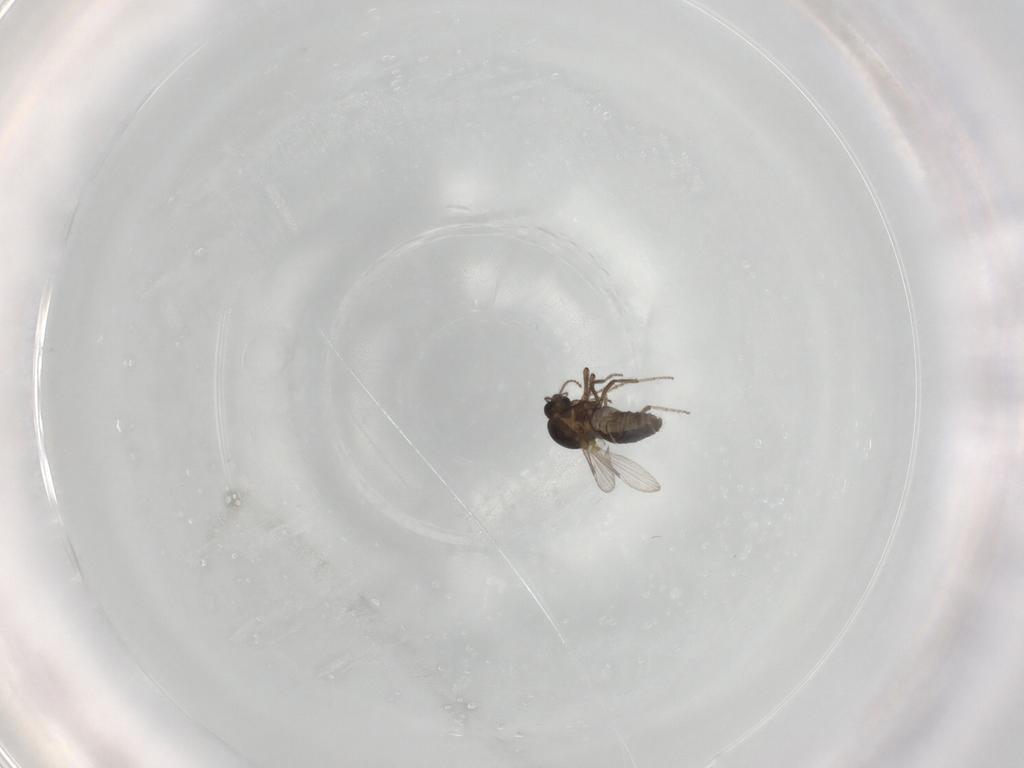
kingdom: Animalia
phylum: Arthropoda
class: Insecta
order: Diptera
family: Ceratopogonidae
